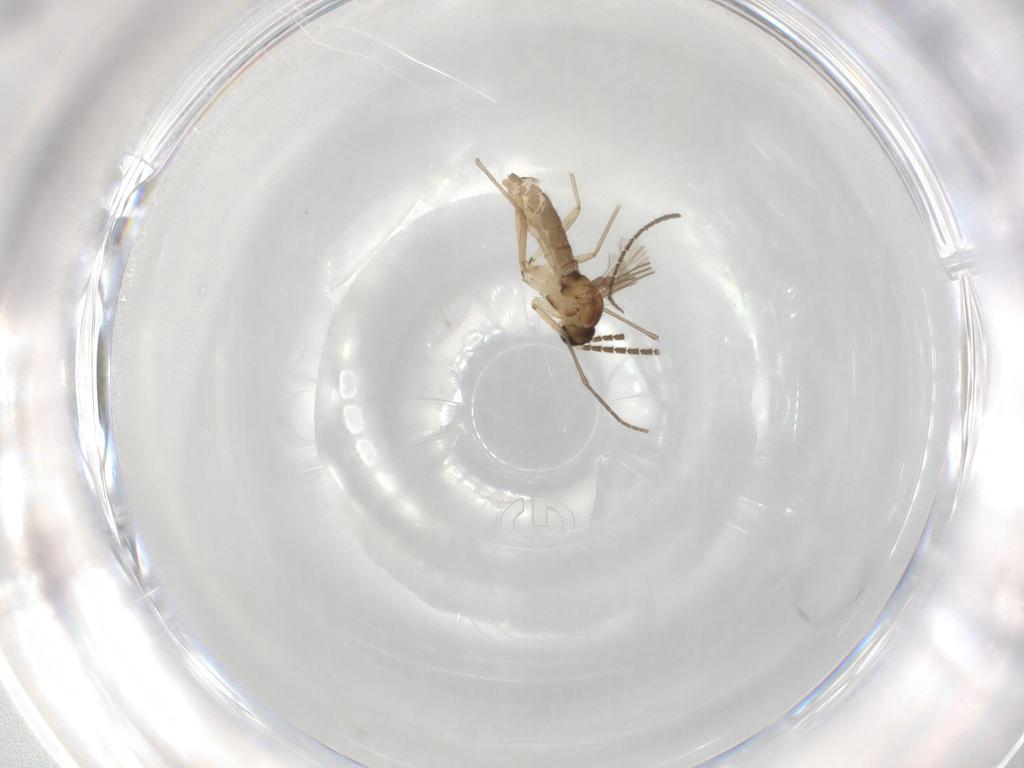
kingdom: Animalia
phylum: Arthropoda
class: Insecta
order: Diptera
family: Sciaridae
